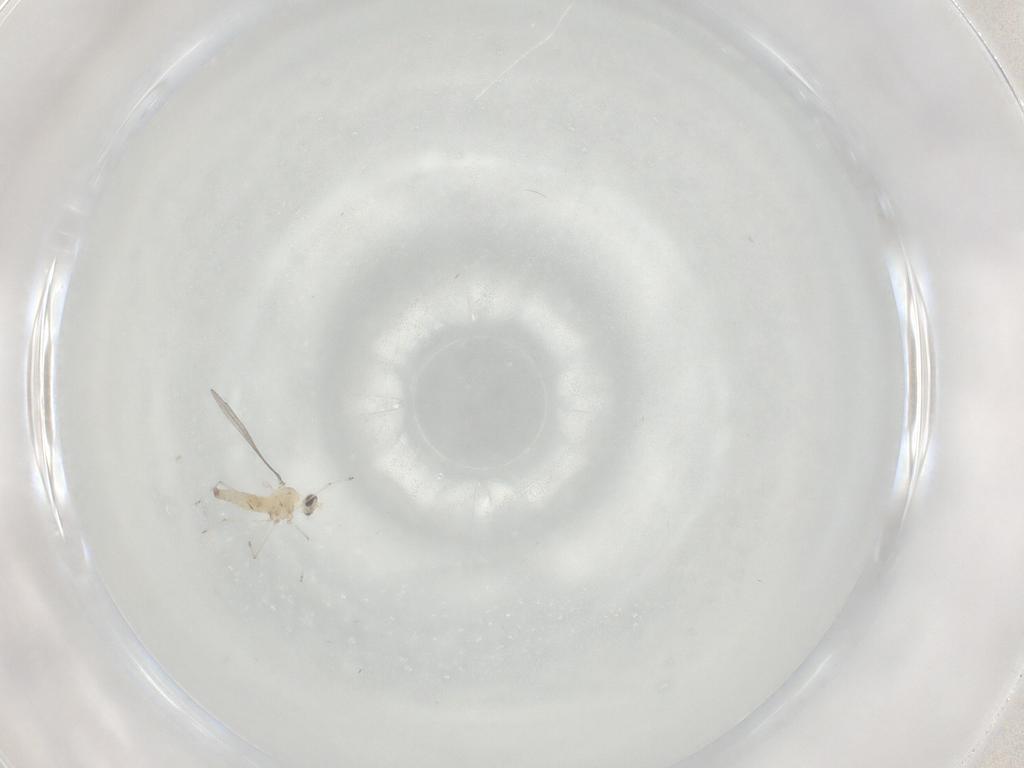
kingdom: Animalia
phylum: Arthropoda
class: Insecta
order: Diptera
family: Cecidomyiidae
